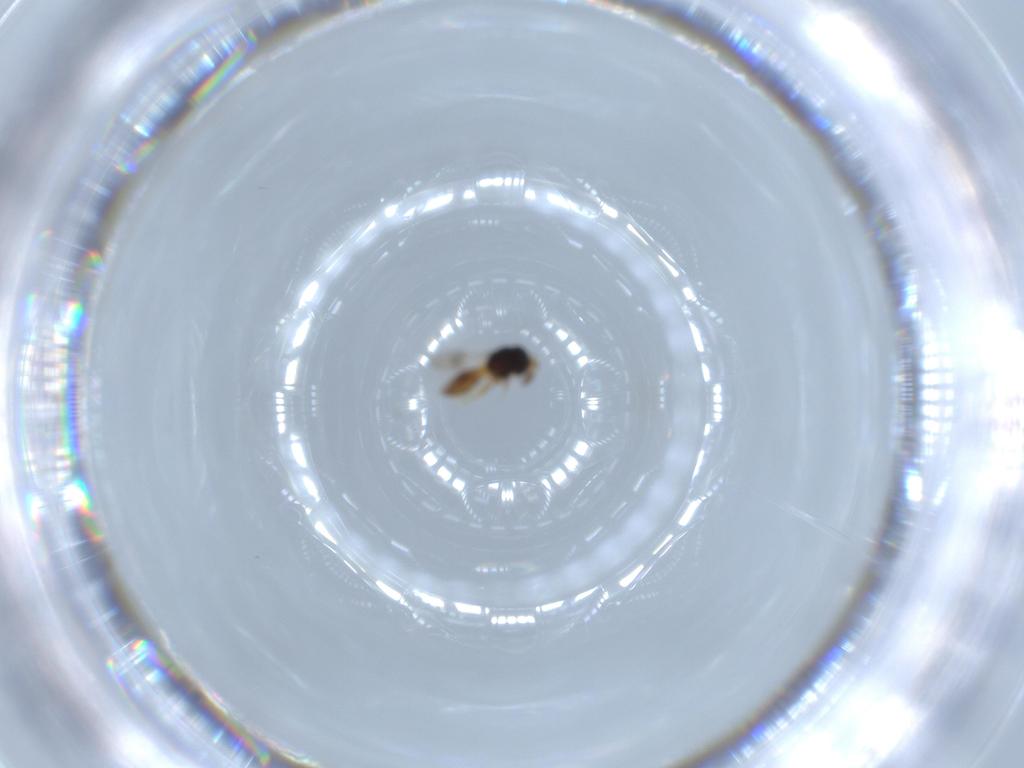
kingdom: Animalia
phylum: Arthropoda
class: Insecta
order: Hymenoptera
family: Scelionidae
